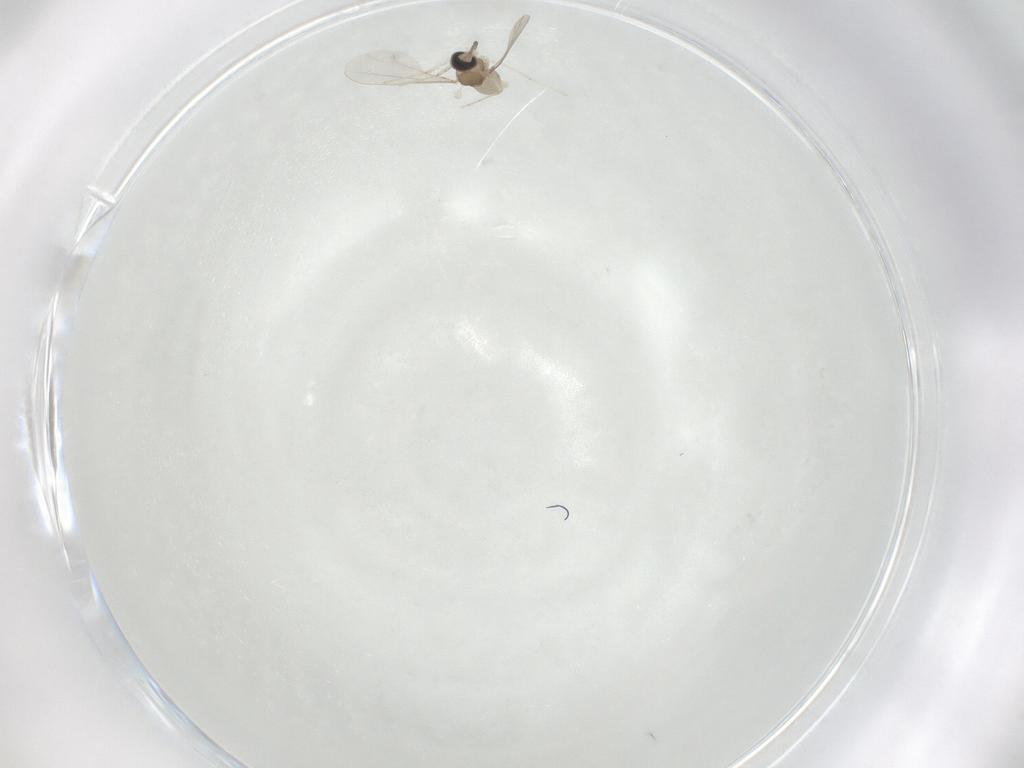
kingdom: Animalia
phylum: Arthropoda
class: Insecta
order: Diptera
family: Cecidomyiidae
